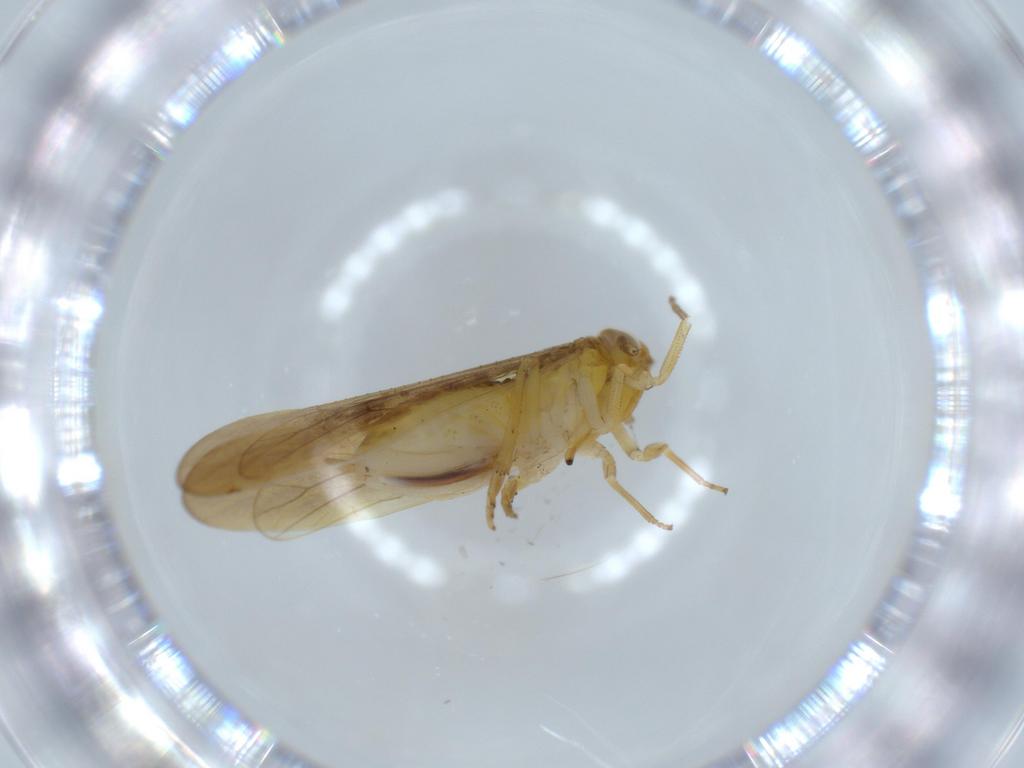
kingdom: Animalia
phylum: Arthropoda
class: Insecta
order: Hemiptera
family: Delphacidae
